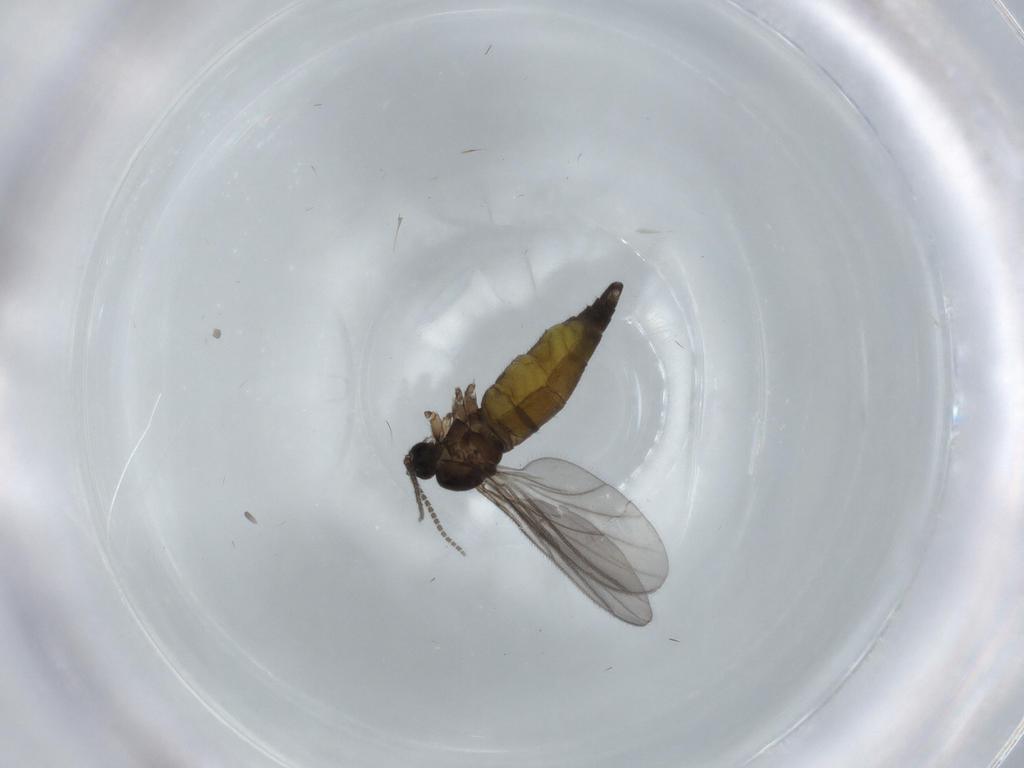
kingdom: Animalia
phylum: Arthropoda
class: Insecta
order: Diptera
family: Sciaridae
